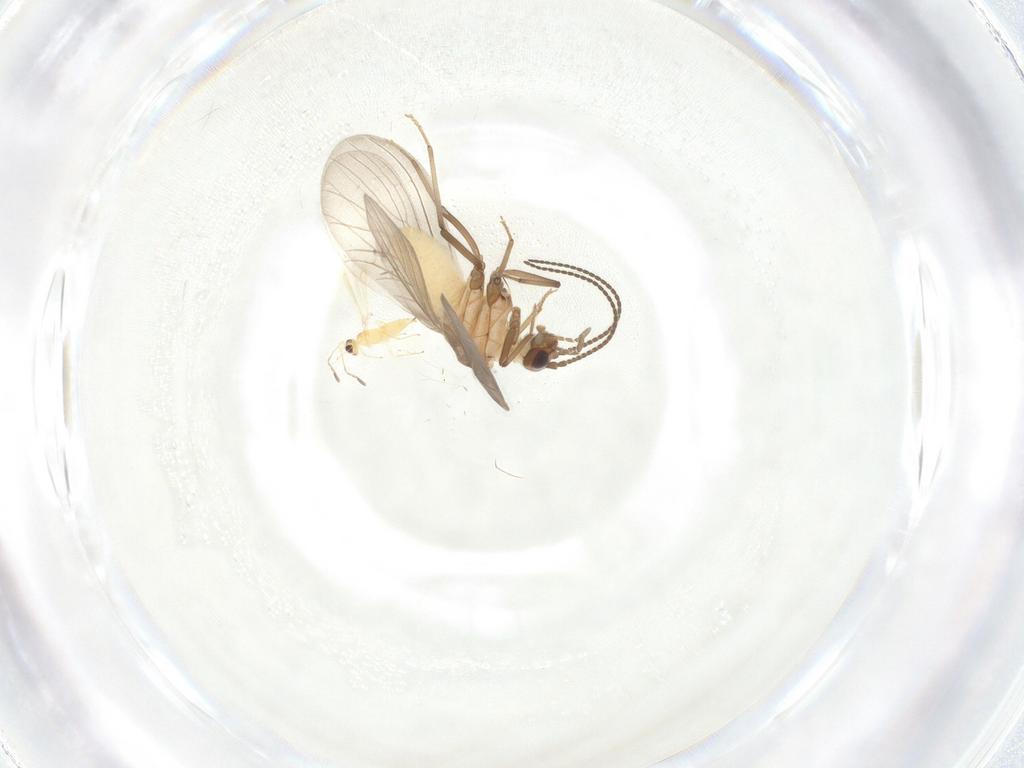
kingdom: Animalia
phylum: Arthropoda
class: Insecta
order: Hymenoptera
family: Mymaridae
